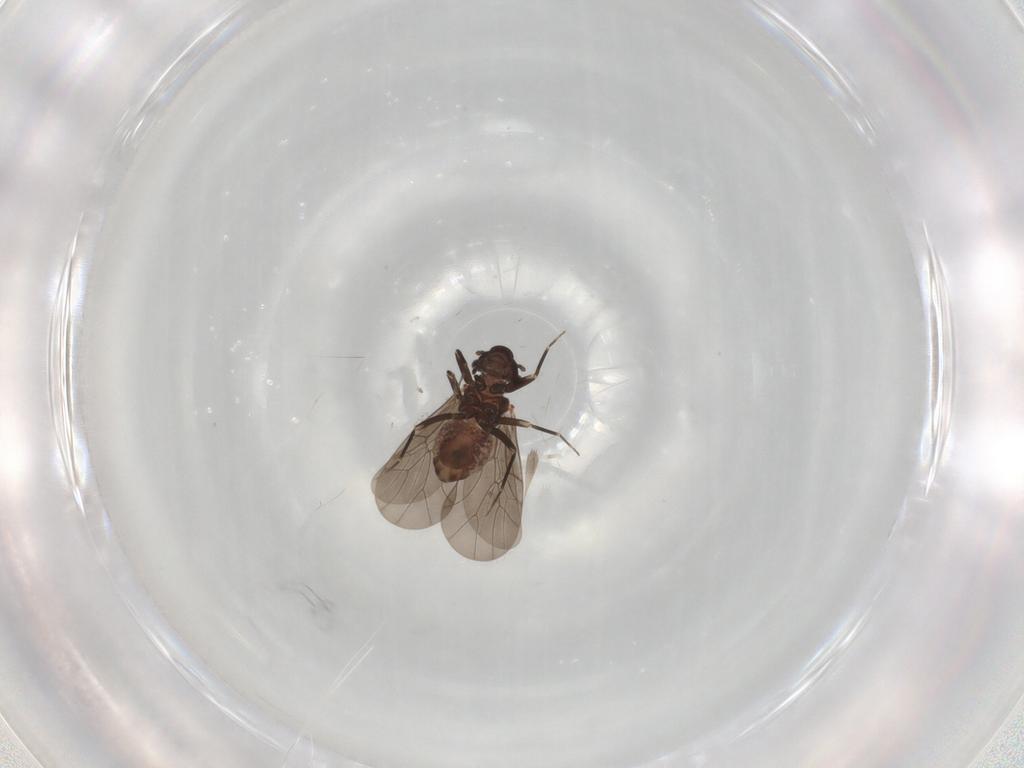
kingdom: Animalia
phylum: Arthropoda
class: Insecta
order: Psocodea
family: Lepidopsocidae
